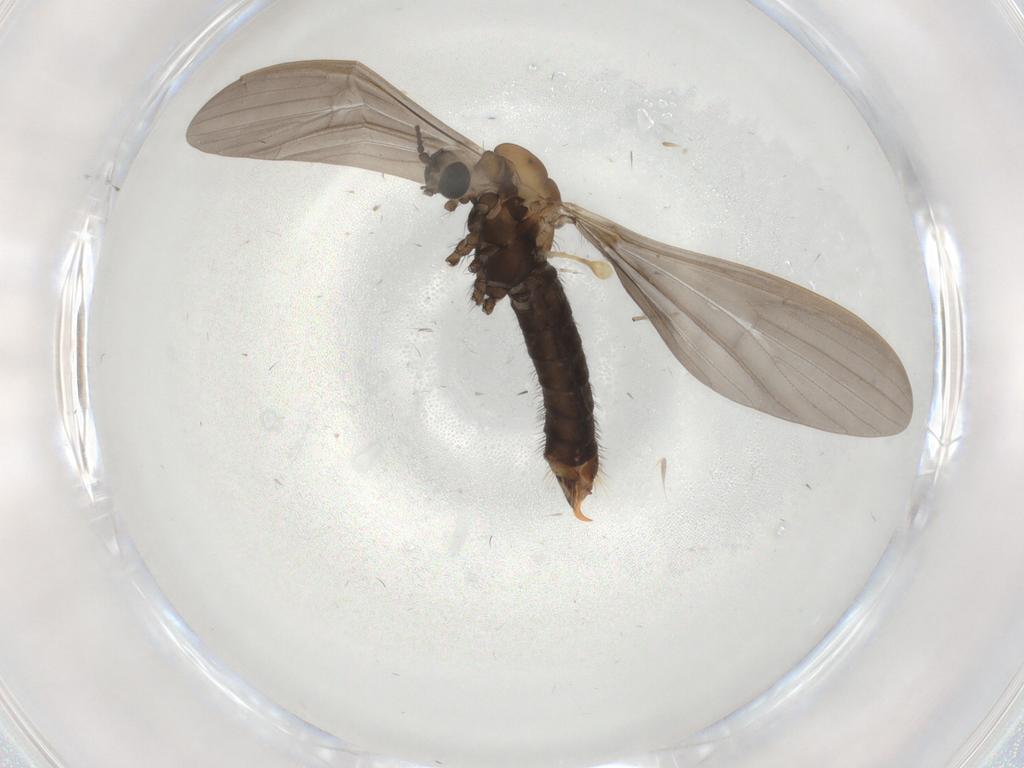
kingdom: Animalia
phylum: Arthropoda
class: Insecta
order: Diptera
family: Limoniidae
